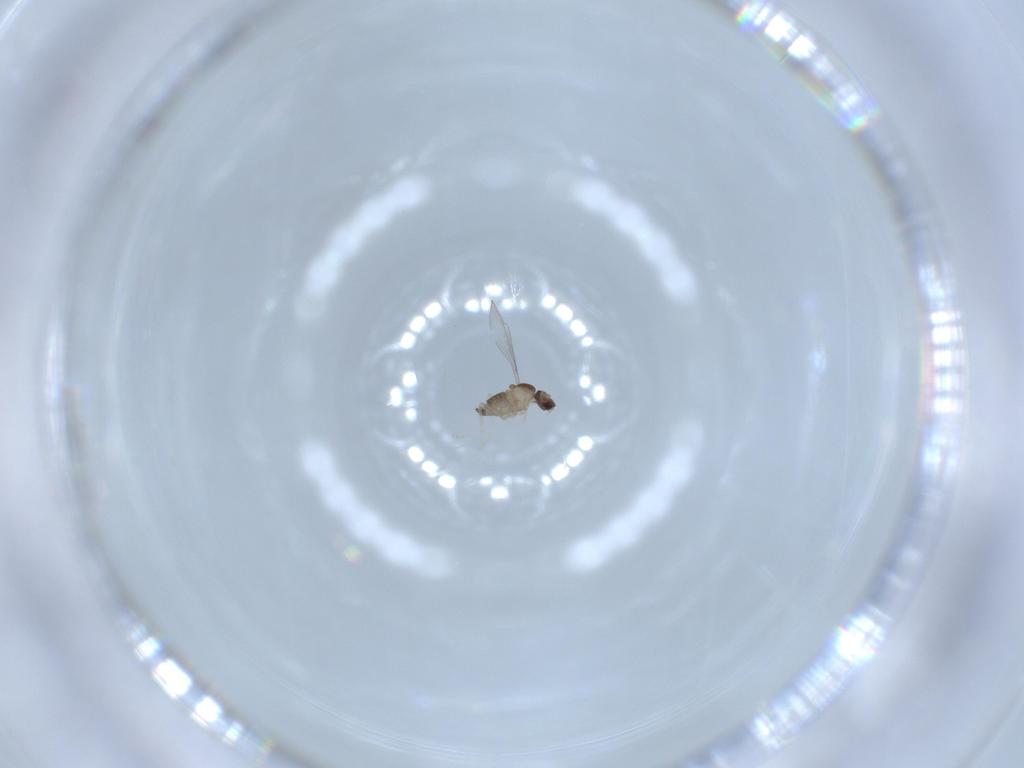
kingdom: Animalia
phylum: Arthropoda
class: Insecta
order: Diptera
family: Cecidomyiidae
